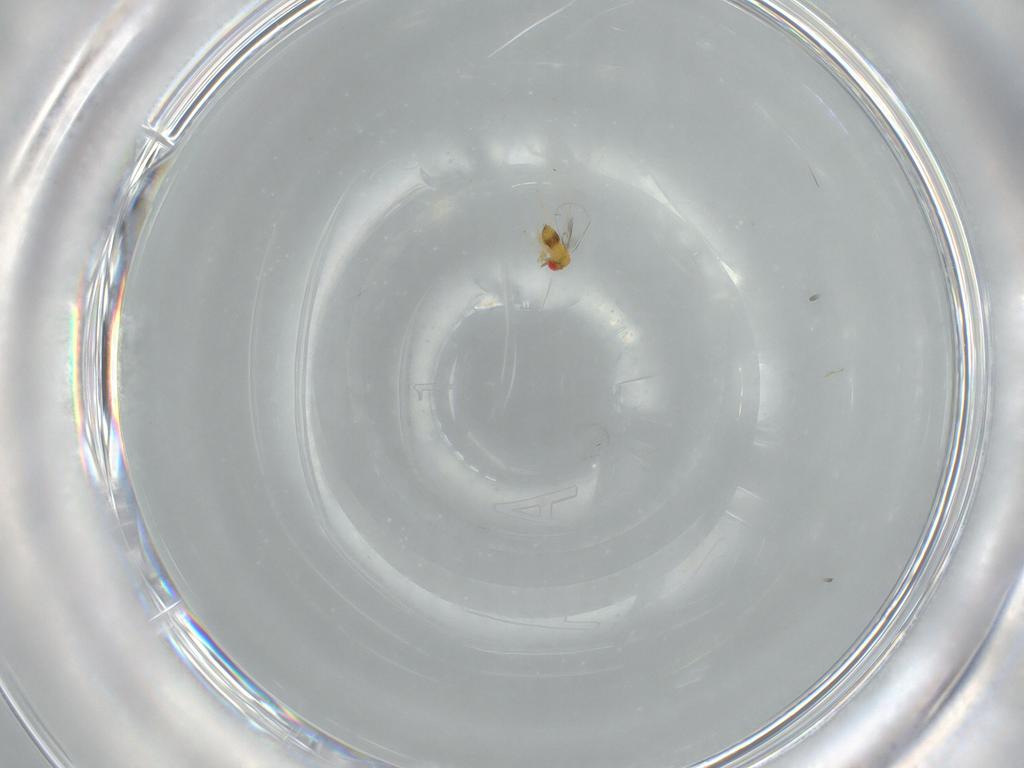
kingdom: Animalia
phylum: Arthropoda
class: Insecta
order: Hymenoptera
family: Trichogrammatidae
